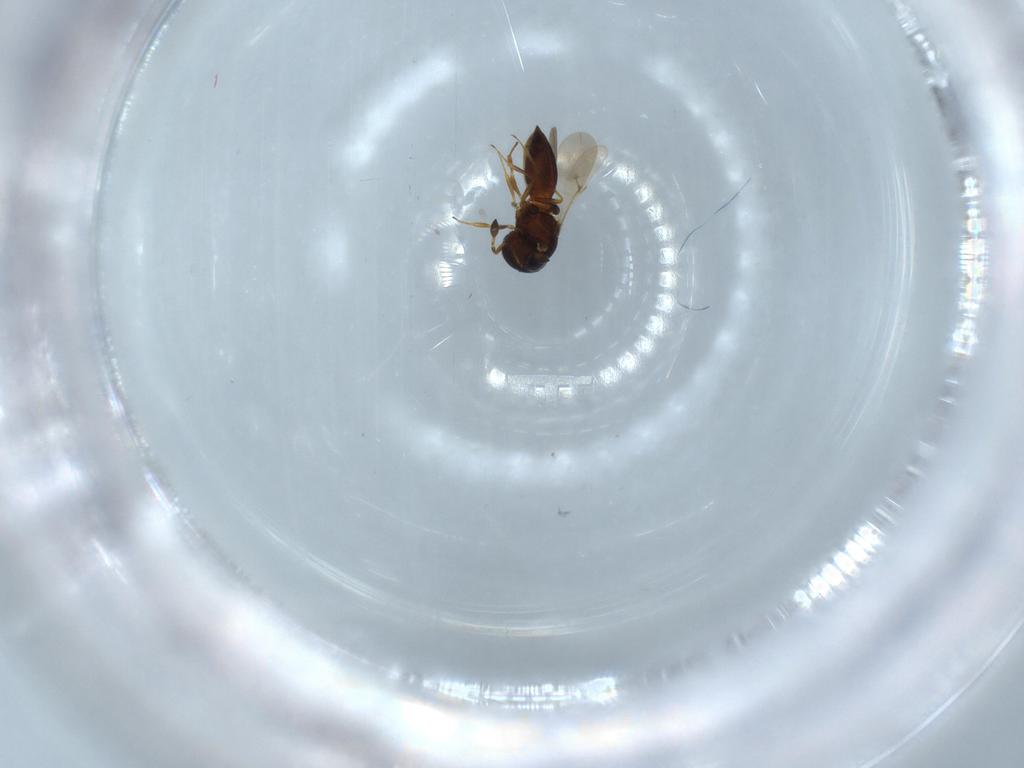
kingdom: Animalia
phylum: Arthropoda
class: Insecta
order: Hymenoptera
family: Scelionidae
